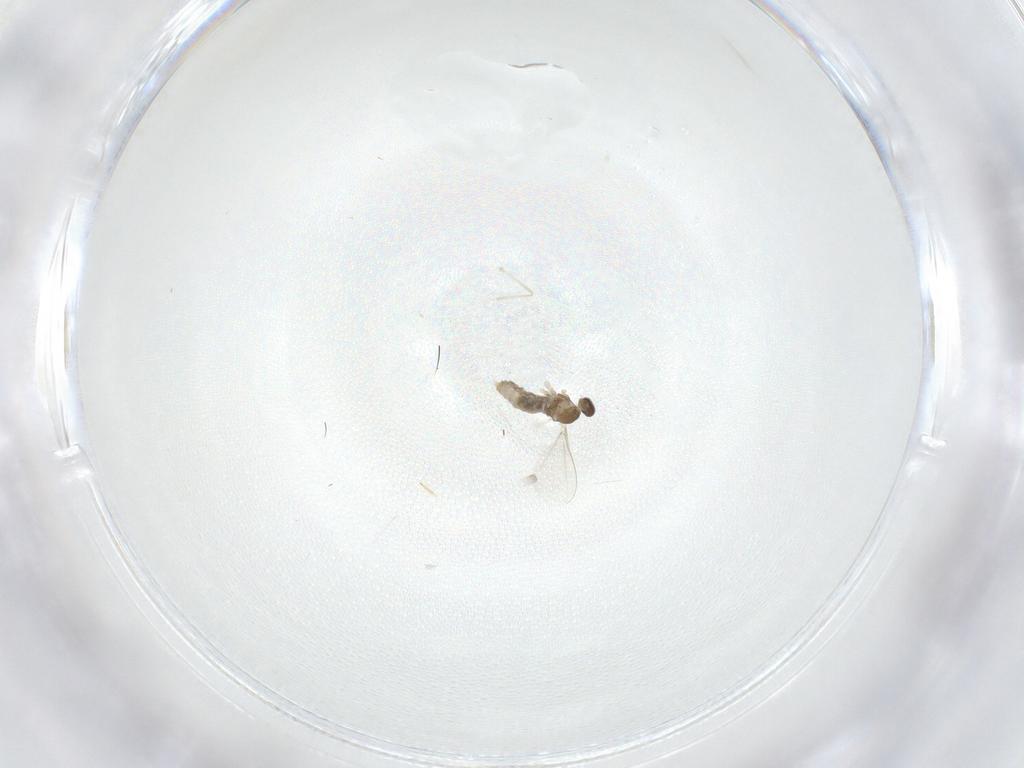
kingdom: Animalia
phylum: Arthropoda
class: Insecta
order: Diptera
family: Cecidomyiidae
